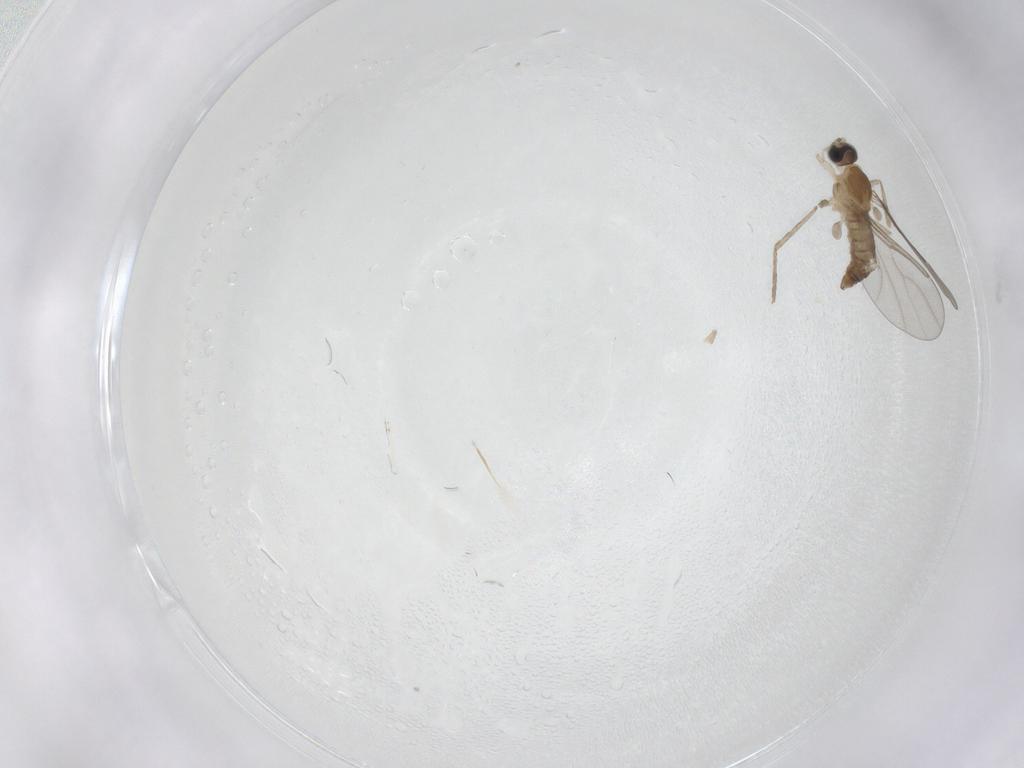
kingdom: Animalia
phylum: Arthropoda
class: Insecta
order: Diptera
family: Cecidomyiidae
